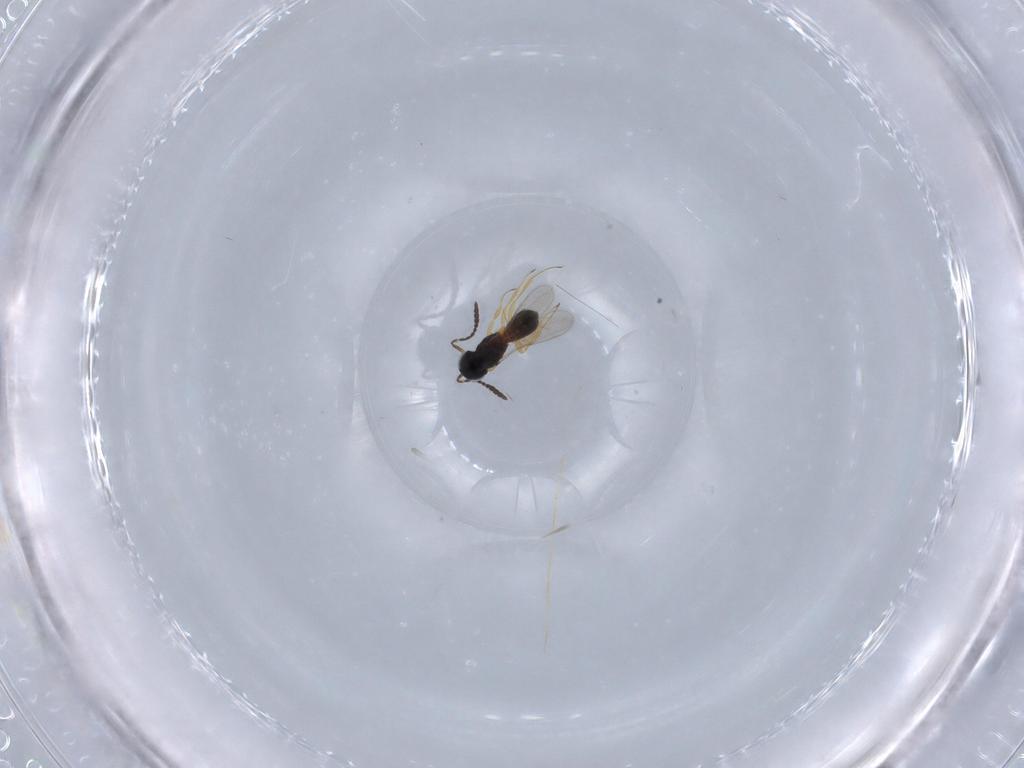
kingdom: Animalia
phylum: Arthropoda
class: Insecta
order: Hymenoptera
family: Scelionidae
